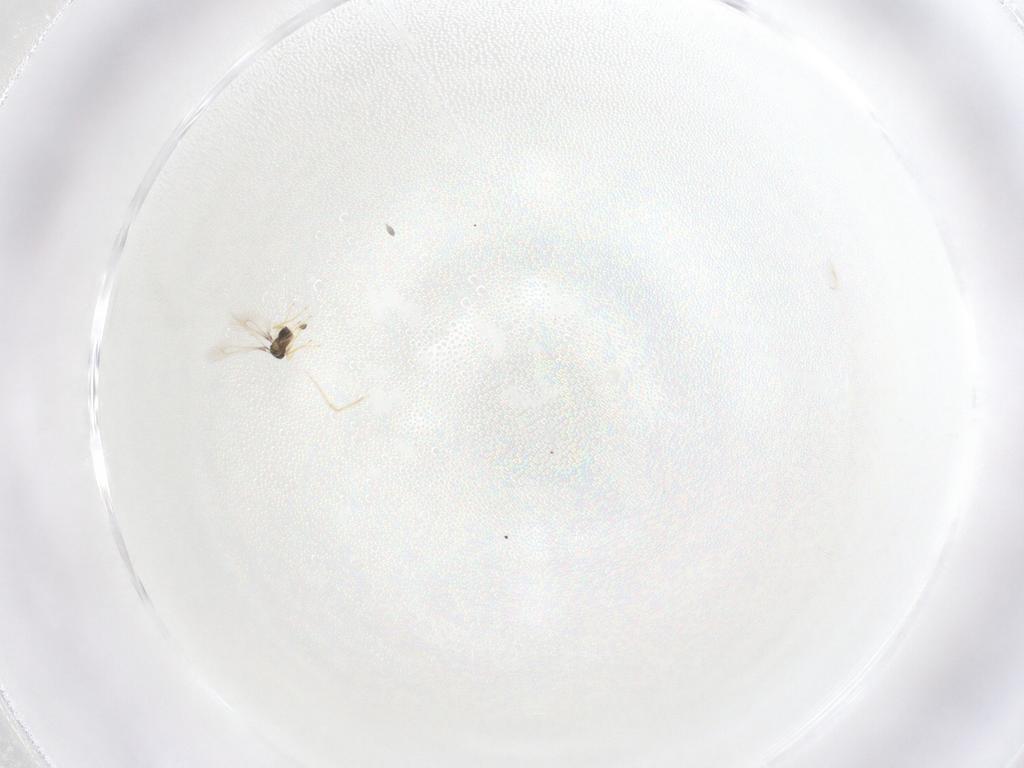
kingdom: Animalia
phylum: Arthropoda
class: Insecta
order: Hymenoptera
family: Mymaridae
